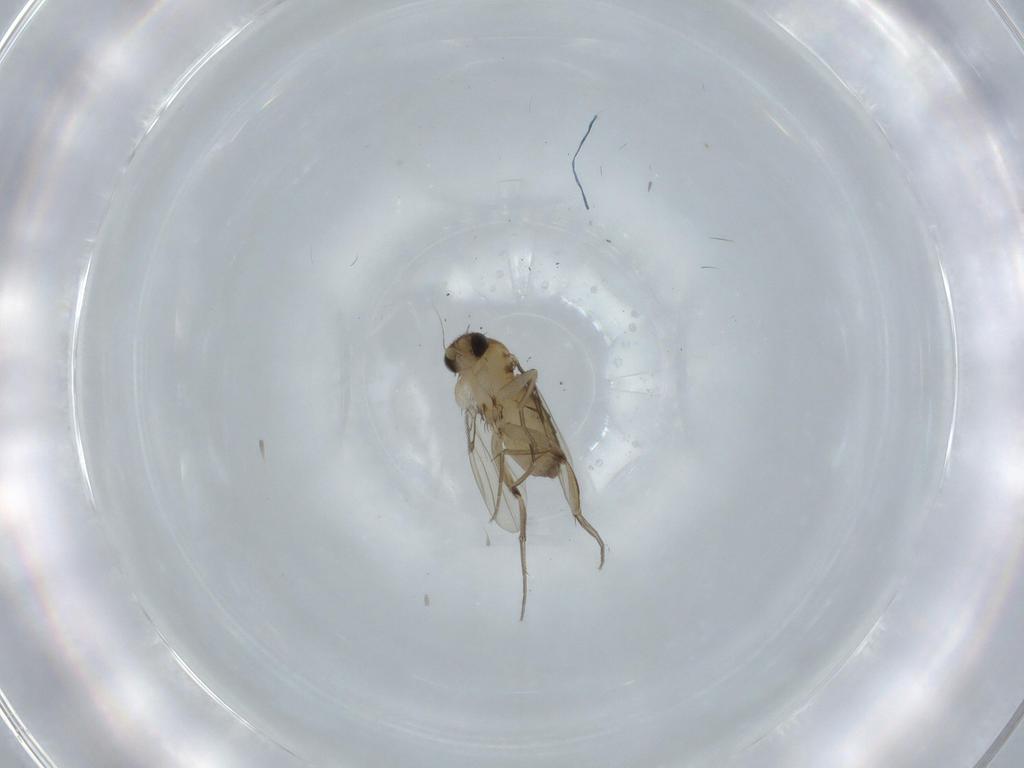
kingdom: Animalia
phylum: Arthropoda
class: Insecta
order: Diptera
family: Phoridae
